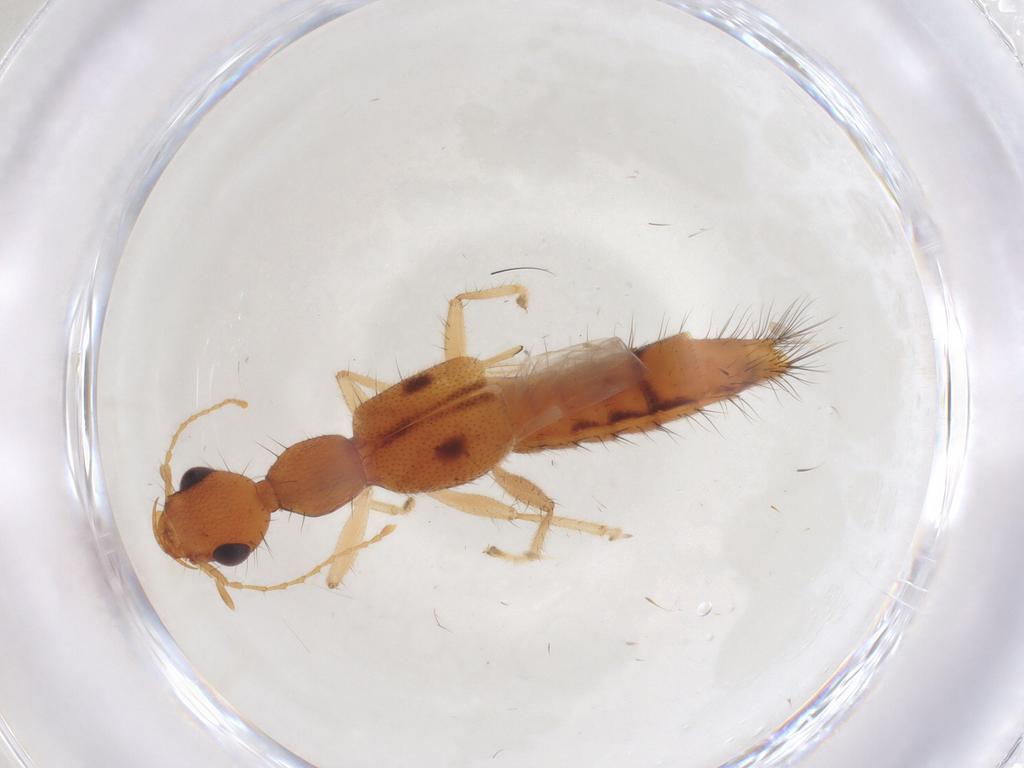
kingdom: Animalia
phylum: Arthropoda
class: Insecta
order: Coleoptera
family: Staphylinidae
